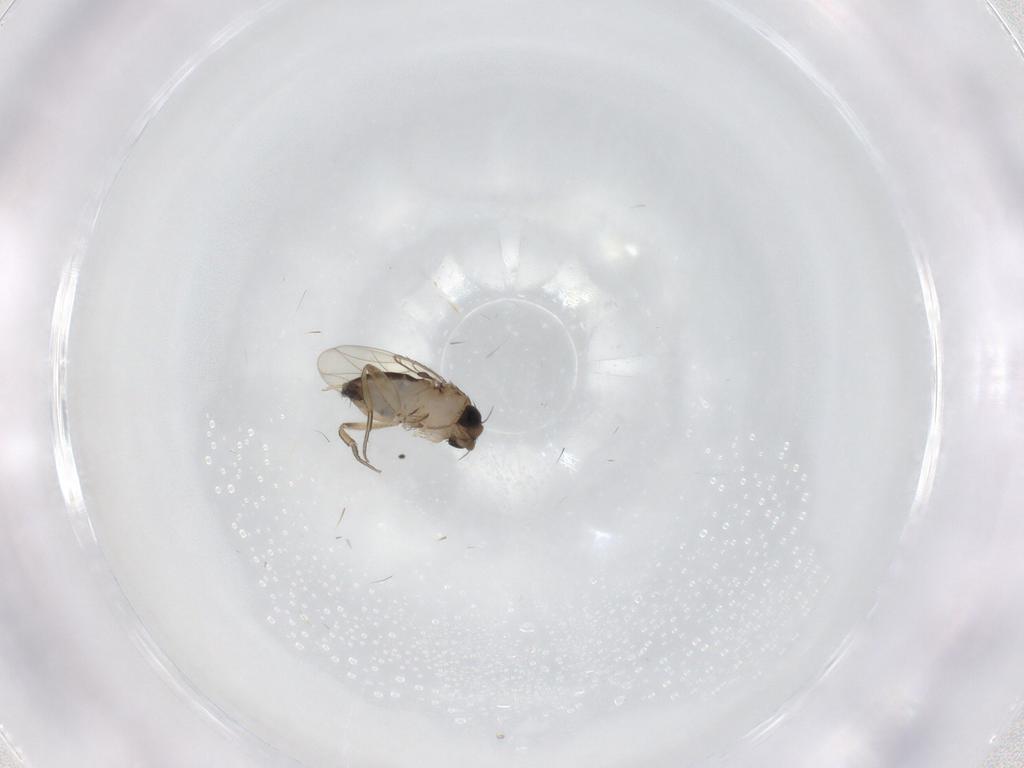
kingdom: Animalia
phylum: Arthropoda
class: Insecta
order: Diptera
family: Phoridae
